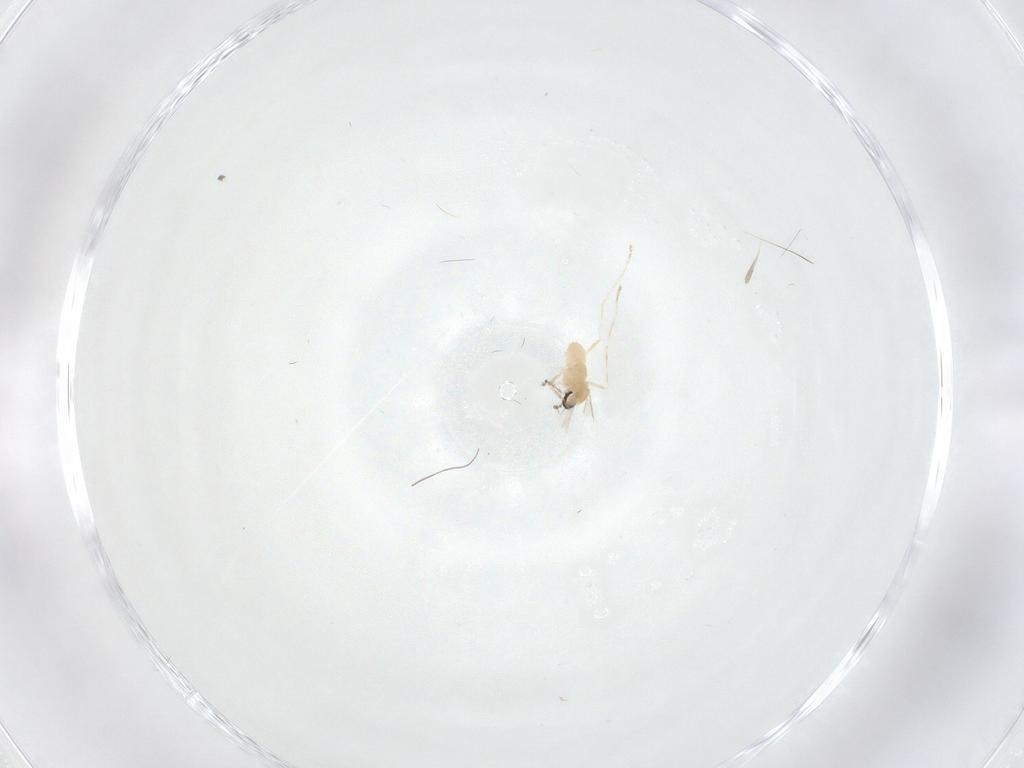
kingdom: Animalia
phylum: Arthropoda
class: Insecta
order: Diptera
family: Cecidomyiidae
